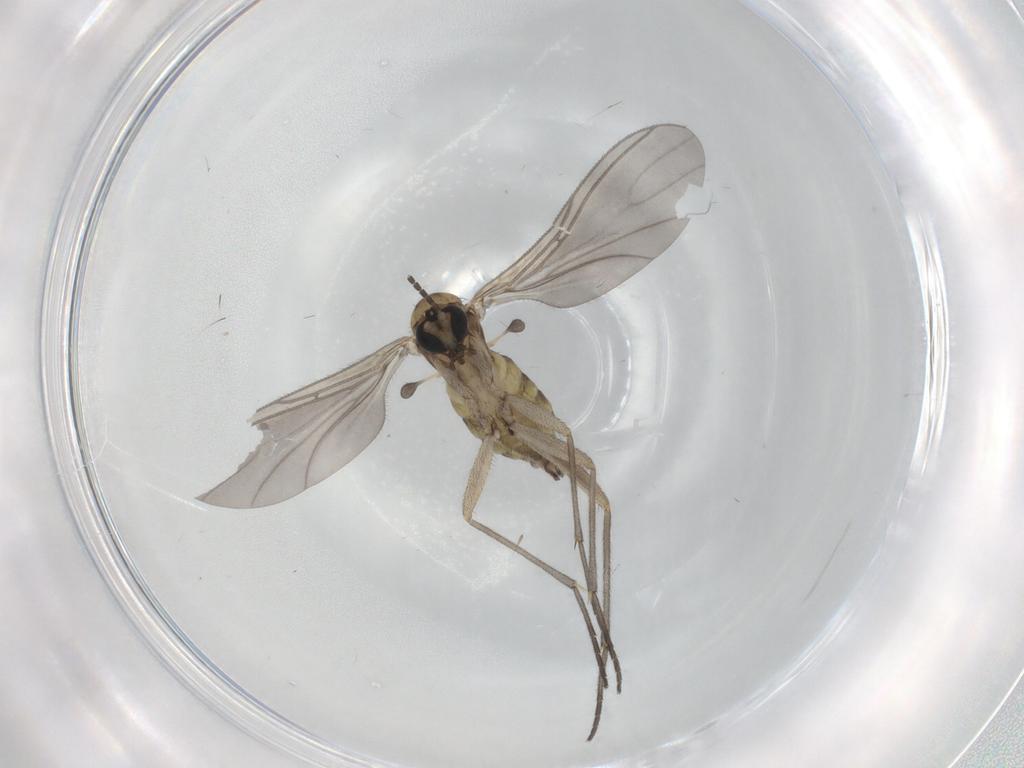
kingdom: Animalia
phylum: Arthropoda
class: Insecta
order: Diptera
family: Sciaridae
